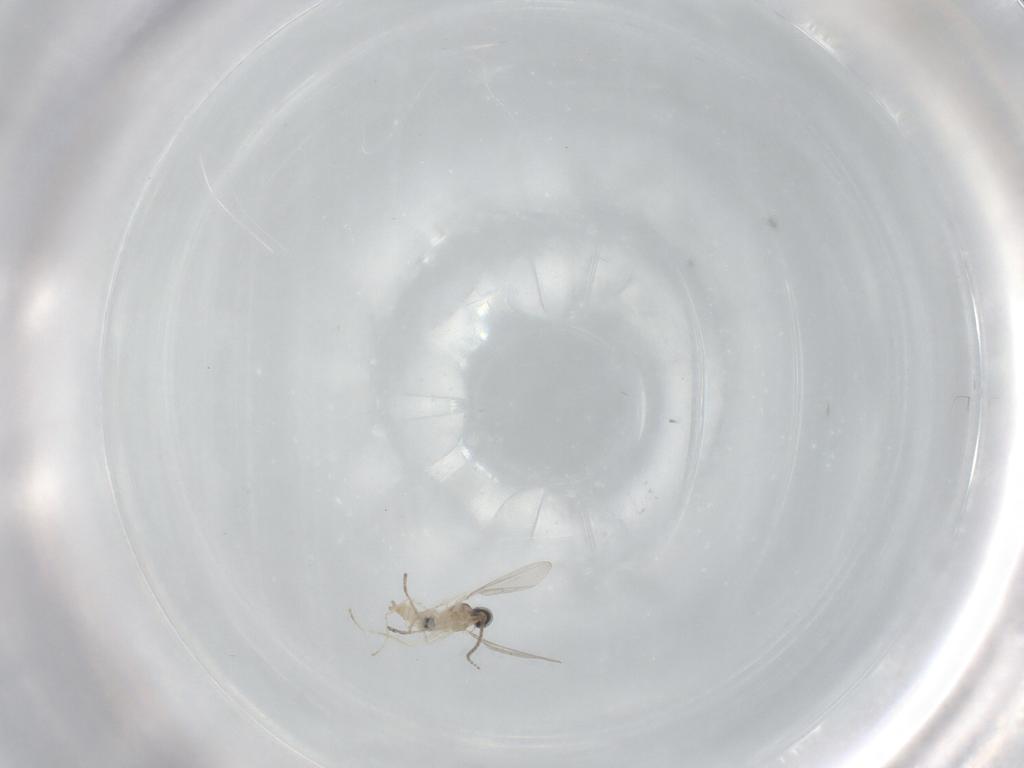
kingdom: Animalia
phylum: Arthropoda
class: Insecta
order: Diptera
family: Cecidomyiidae
